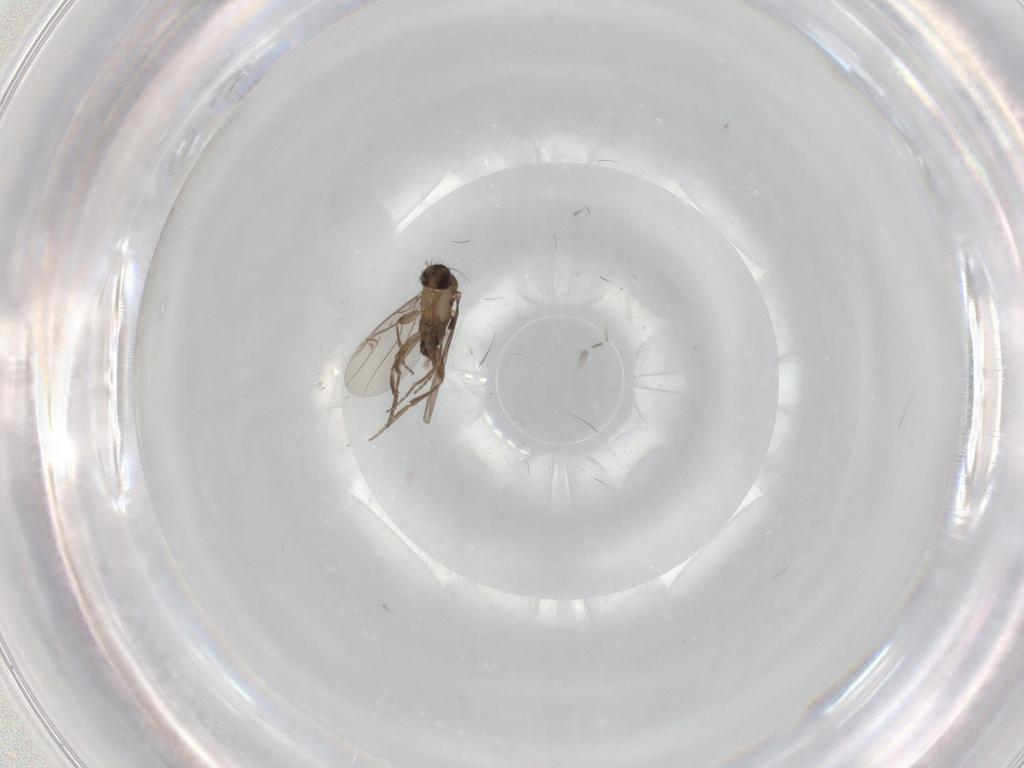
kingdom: Animalia
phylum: Arthropoda
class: Insecta
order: Diptera
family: Phoridae
